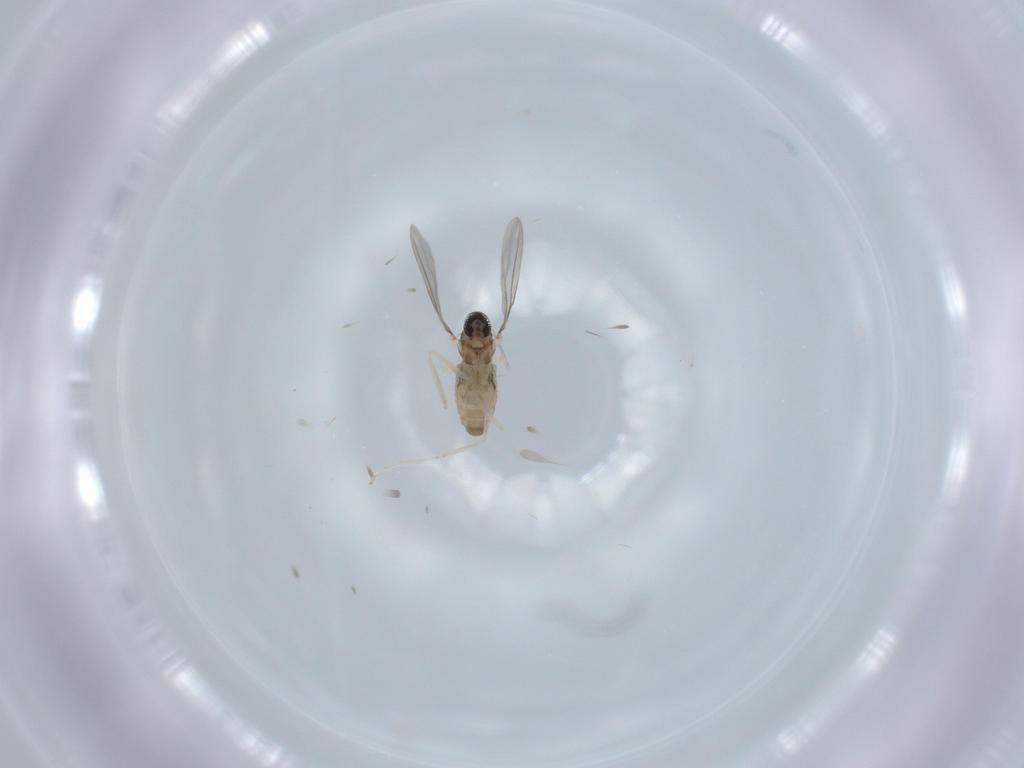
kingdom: Animalia
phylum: Arthropoda
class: Insecta
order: Diptera
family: Cecidomyiidae
